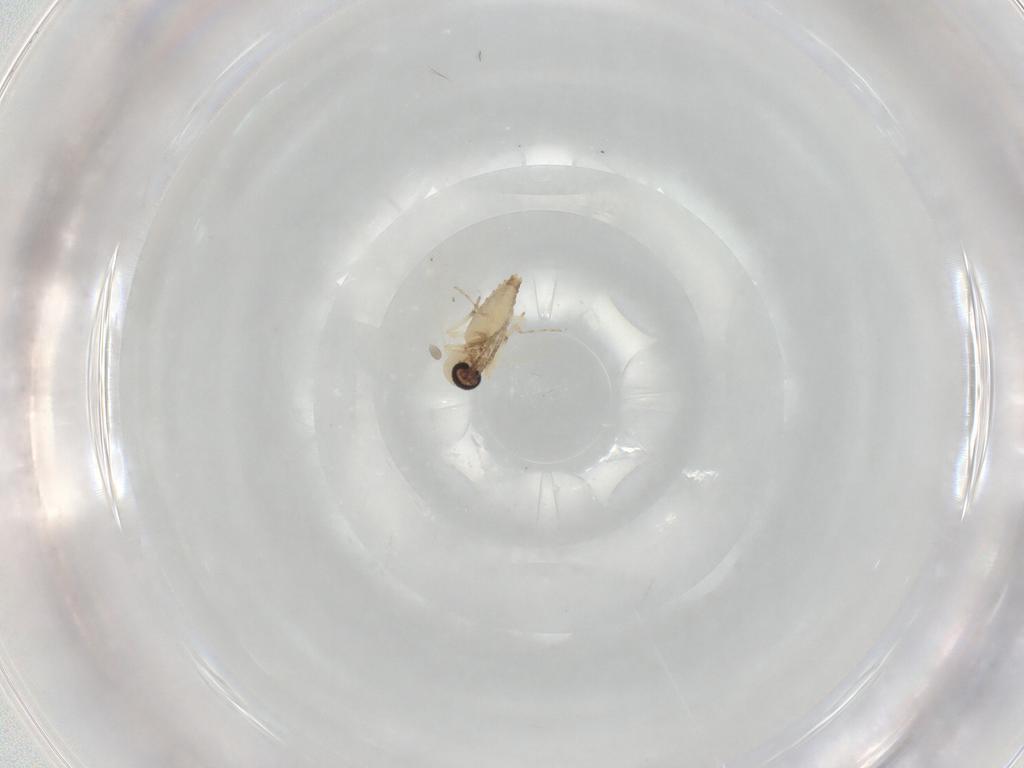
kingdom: Animalia
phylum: Arthropoda
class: Insecta
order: Diptera
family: Ceratopogonidae
